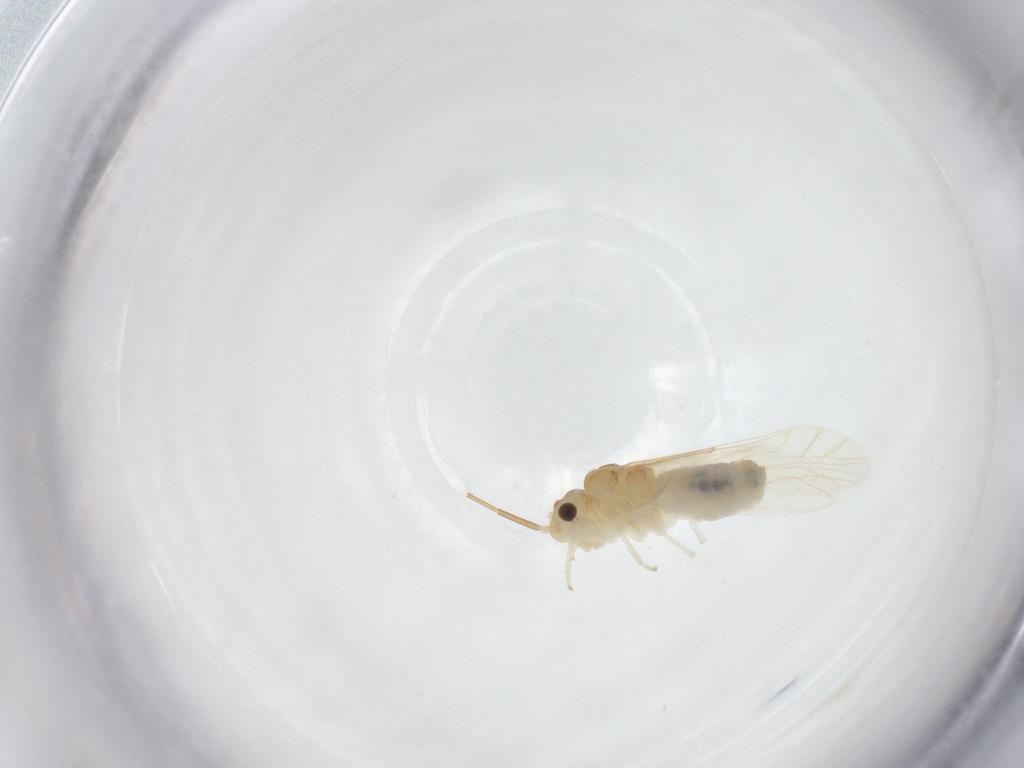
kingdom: Animalia
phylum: Arthropoda
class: Insecta
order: Psocodea
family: Caeciliusidae
